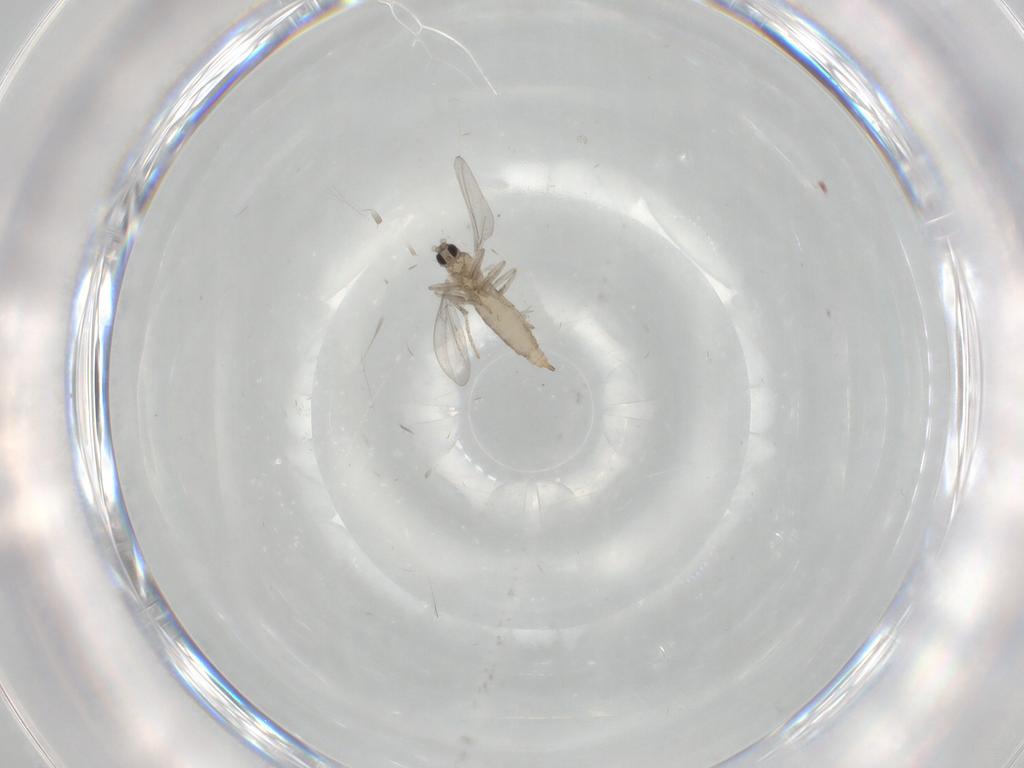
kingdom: Animalia
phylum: Arthropoda
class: Insecta
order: Diptera
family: Cecidomyiidae
